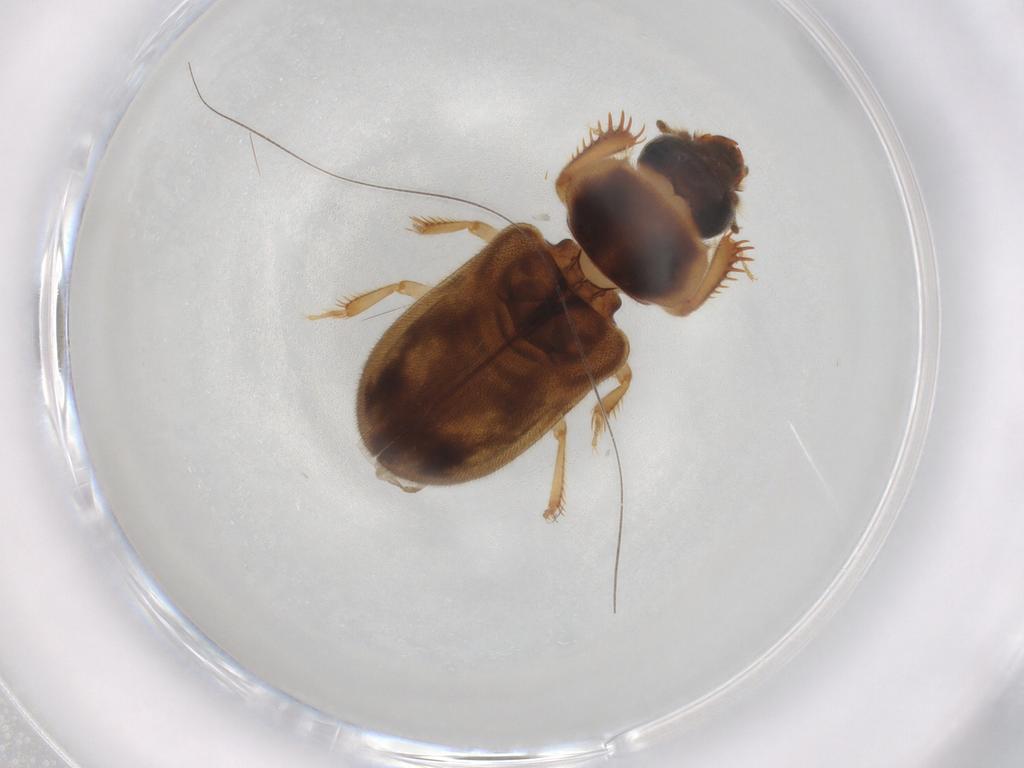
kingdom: Animalia
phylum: Arthropoda
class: Insecta
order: Coleoptera
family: Heteroceridae
